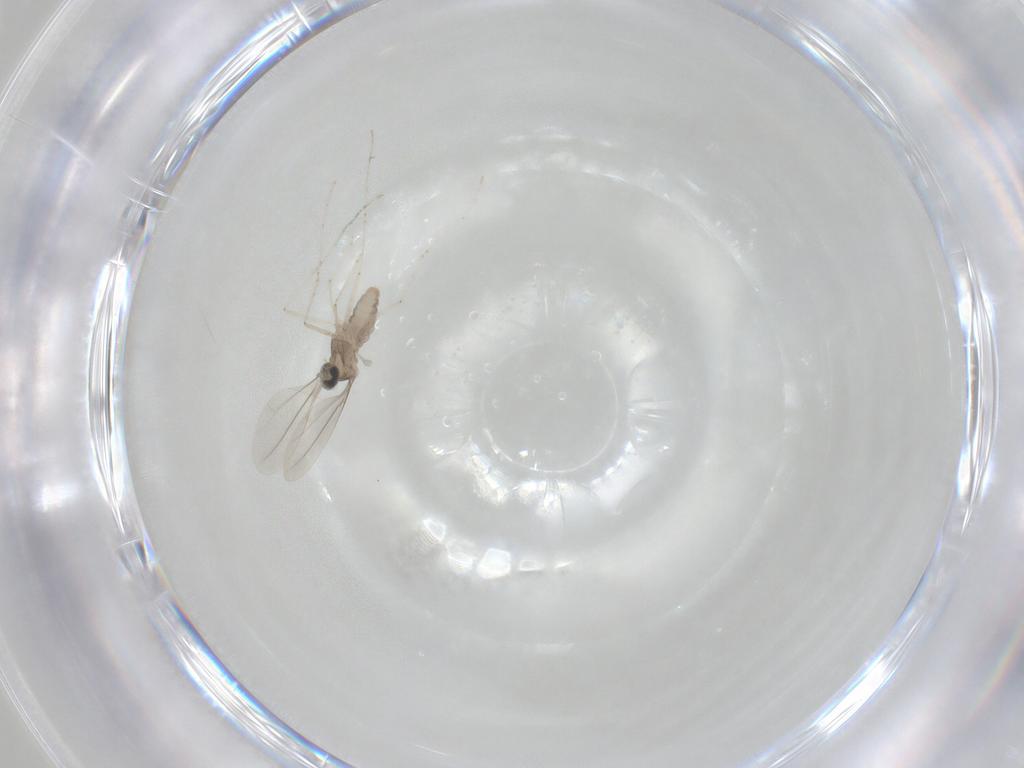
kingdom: Animalia
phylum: Arthropoda
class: Insecta
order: Diptera
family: Cecidomyiidae
